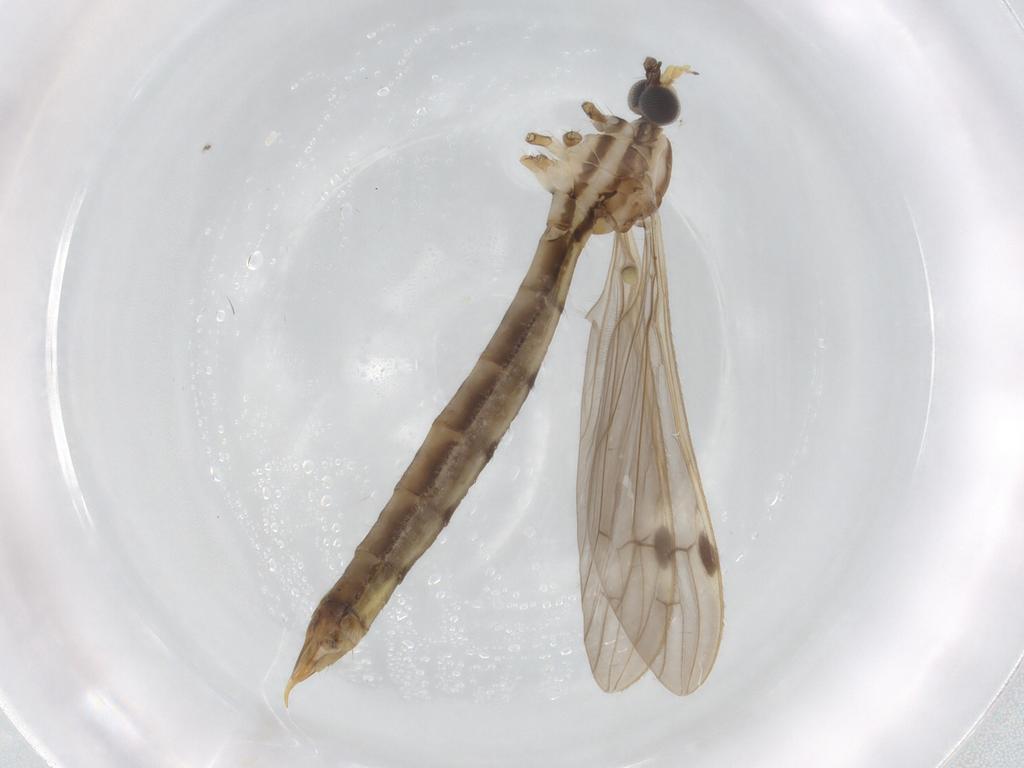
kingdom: Animalia
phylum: Arthropoda
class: Insecta
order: Diptera
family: Limoniidae
